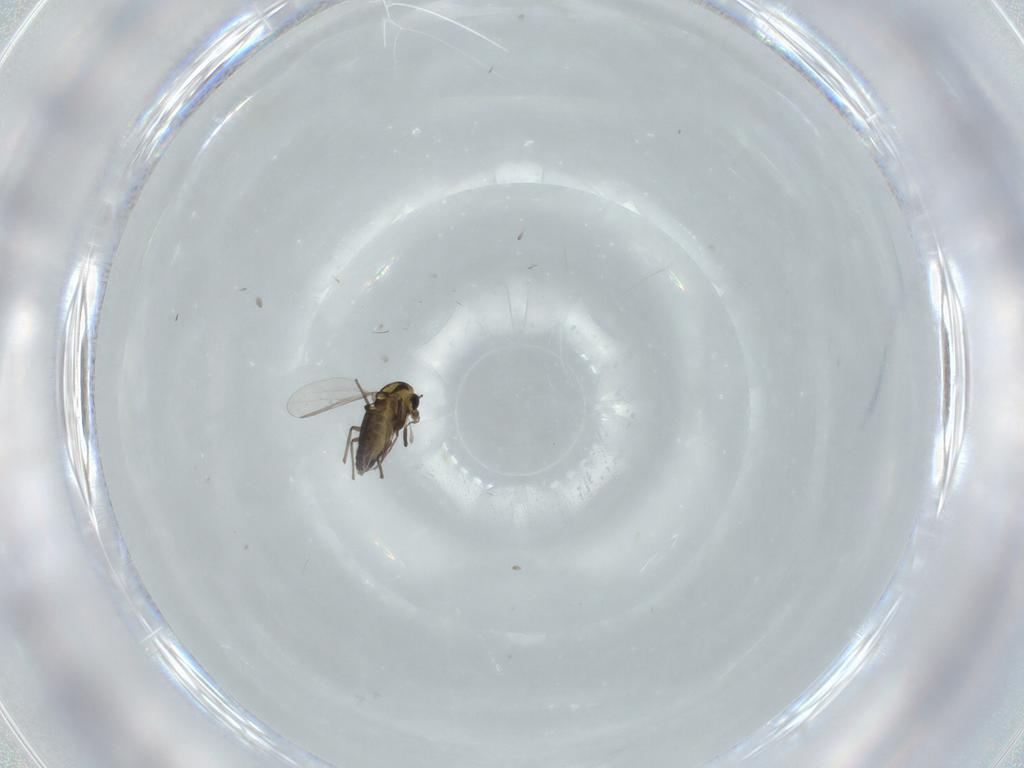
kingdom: Animalia
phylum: Arthropoda
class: Insecta
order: Diptera
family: Chironomidae
